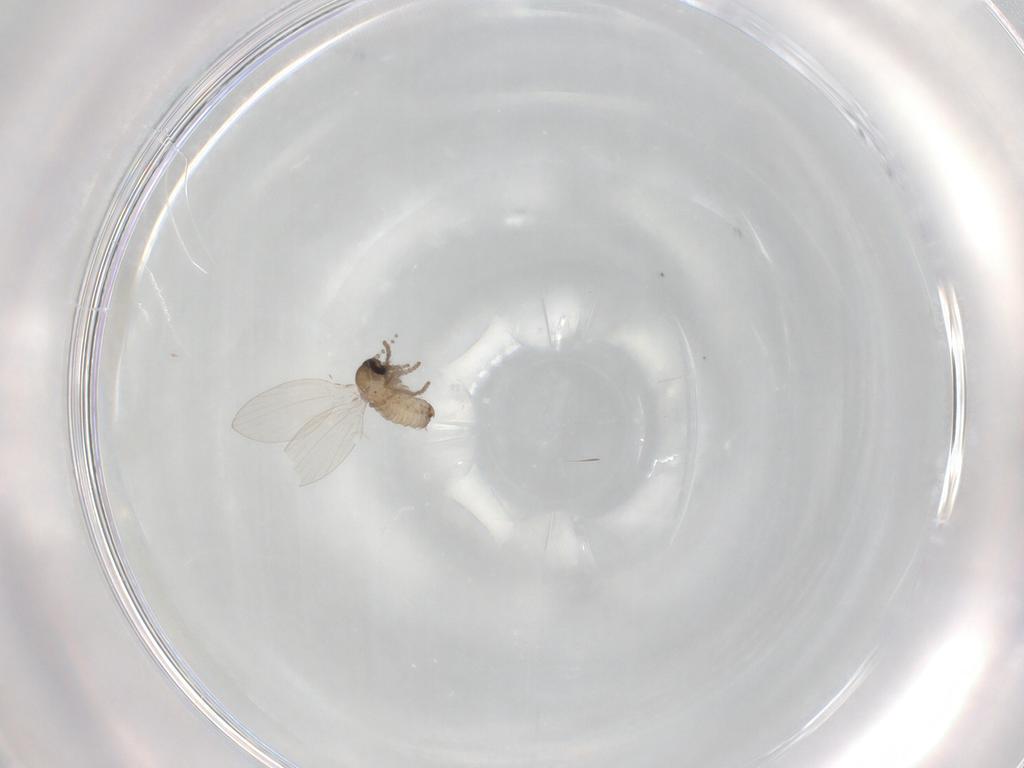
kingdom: Animalia
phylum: Arthropoda
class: Insecta
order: Diptera
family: Psychodidae
